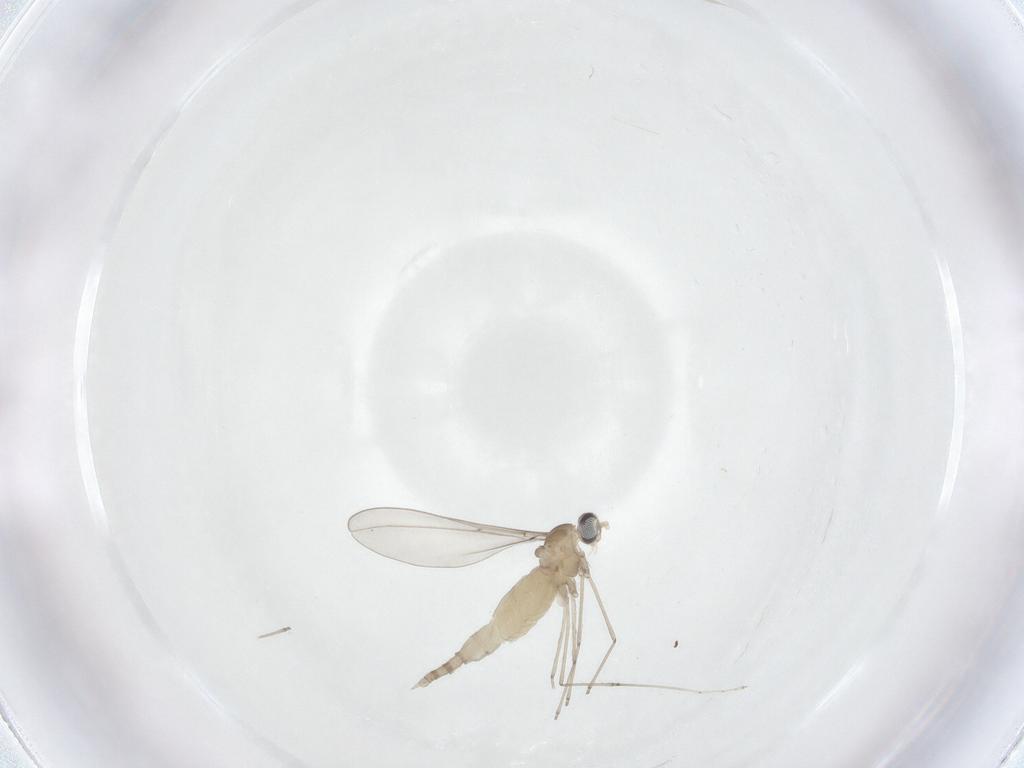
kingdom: Animalia
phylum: Arthropoda
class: Insecta
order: Diptera
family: Cecidomyiidae
